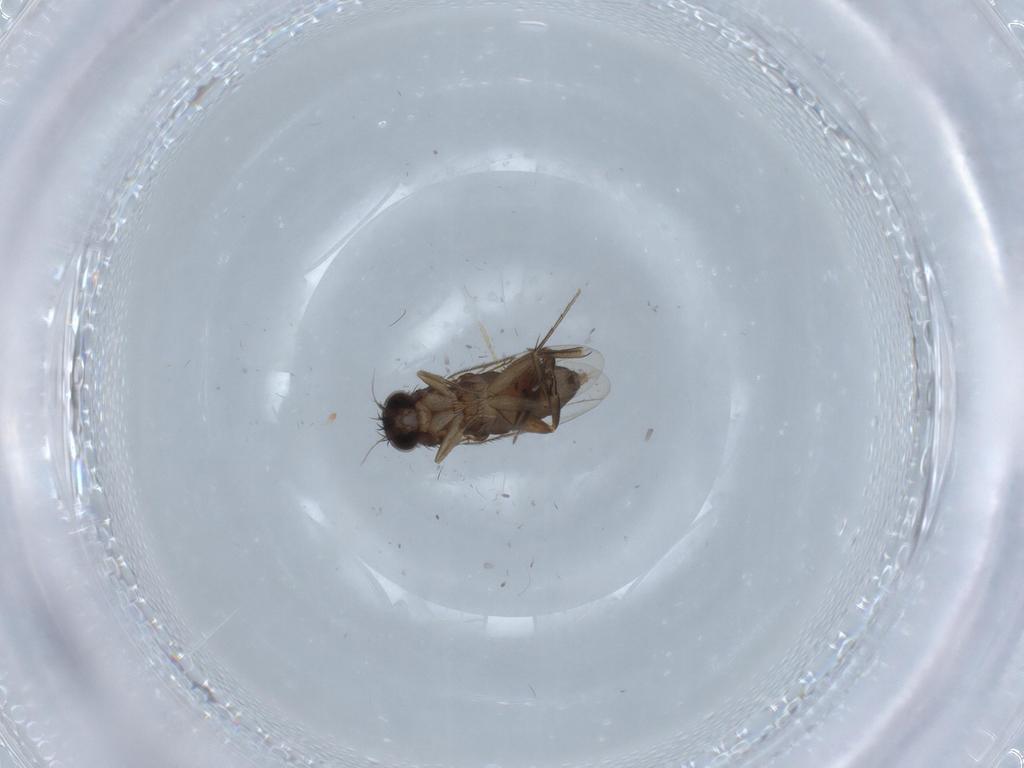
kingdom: Animalia
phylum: Arthropoda
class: Insecta
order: Diptera
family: Phoridae
